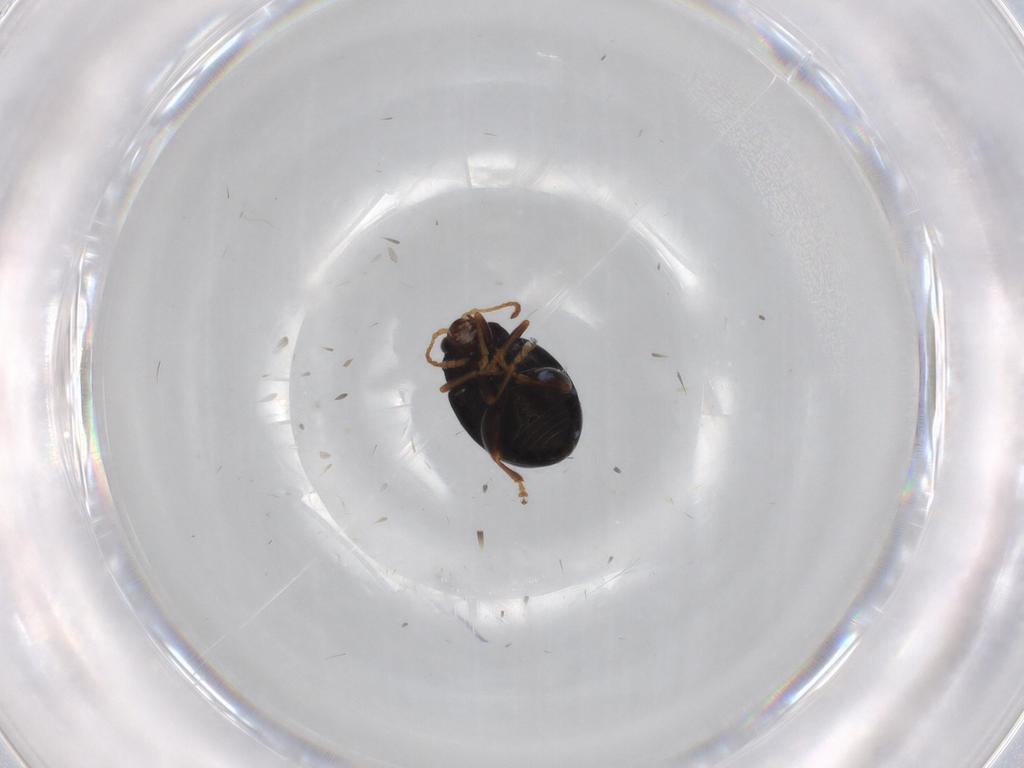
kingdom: Animalia
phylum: Arthropoda
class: Insecta
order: Coleoptera
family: Chrysomelidae
